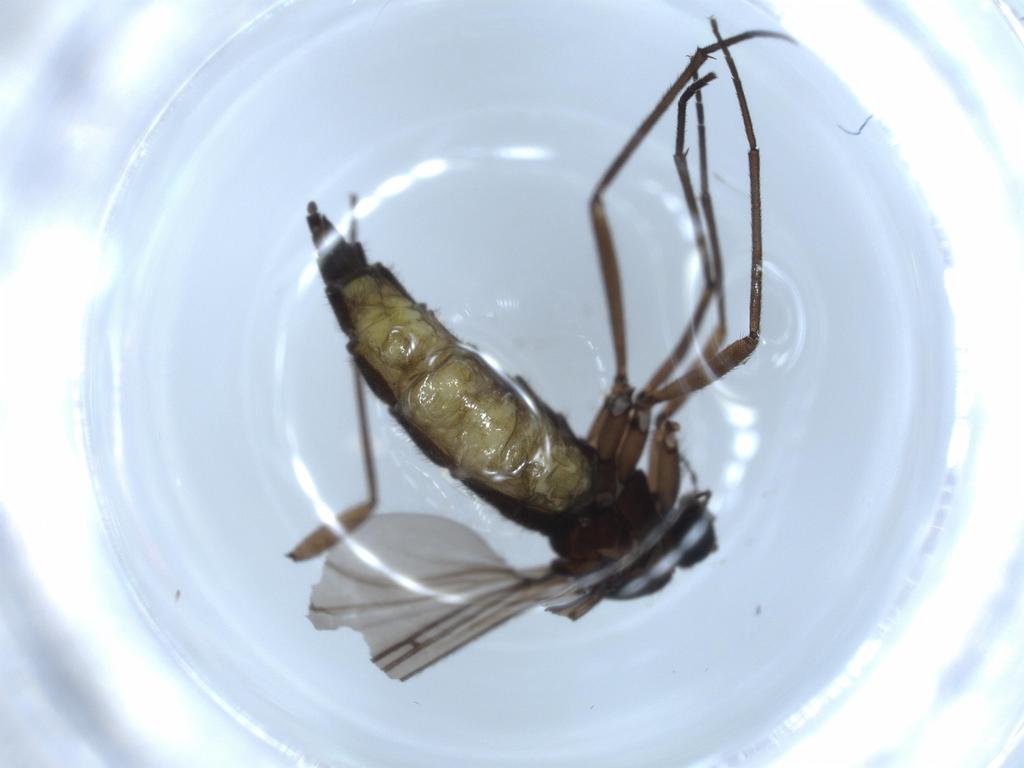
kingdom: Animalia
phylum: Arthropoda
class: Insecta
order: Diptera
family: Sciaridae
